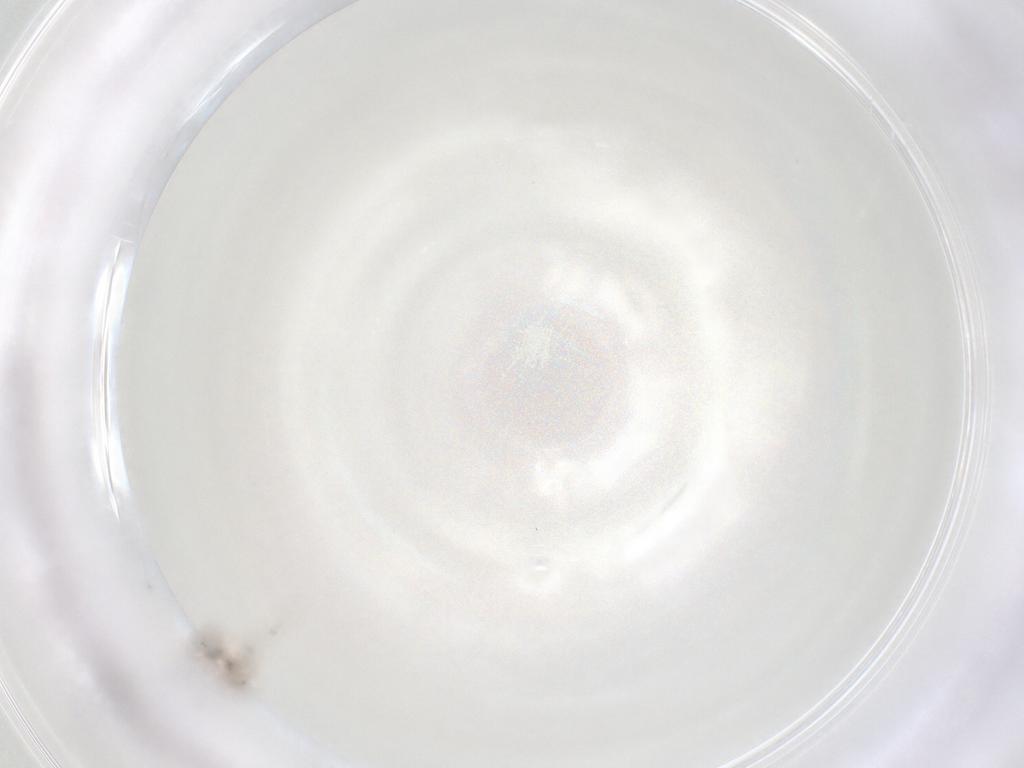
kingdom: Animalia
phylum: Arthropoda
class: Insecta
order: Hymenoptera
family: Mymaridae
